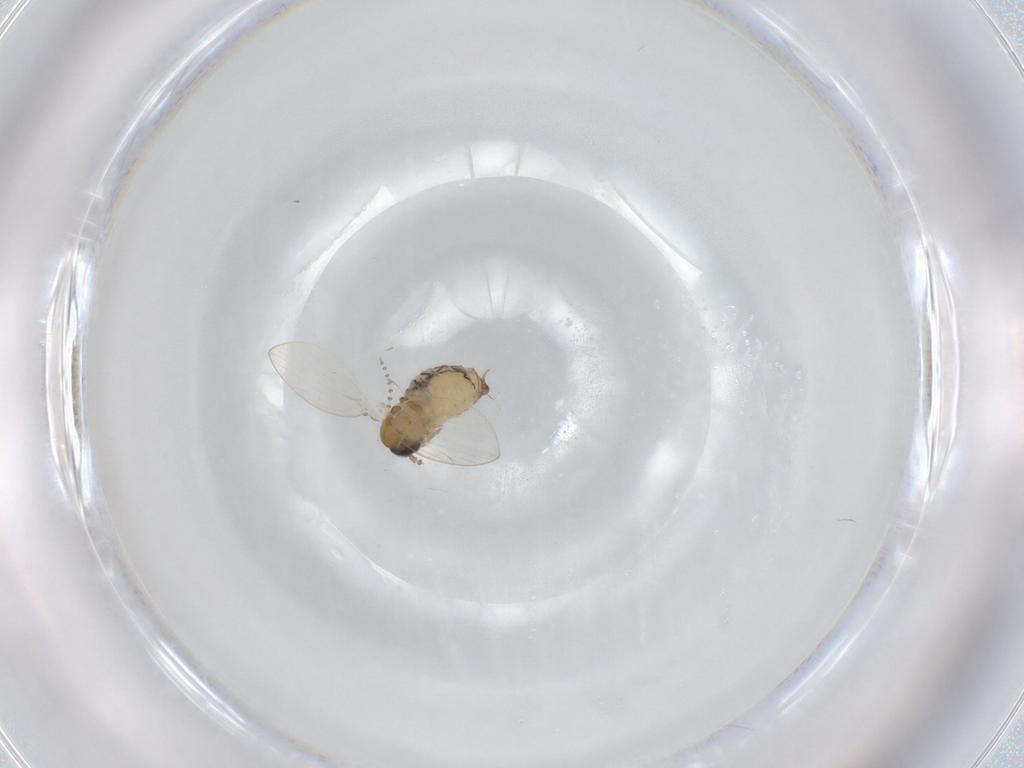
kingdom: Animalia
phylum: Arthropoda
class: Insecta
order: Diptera
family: Psychodidae
